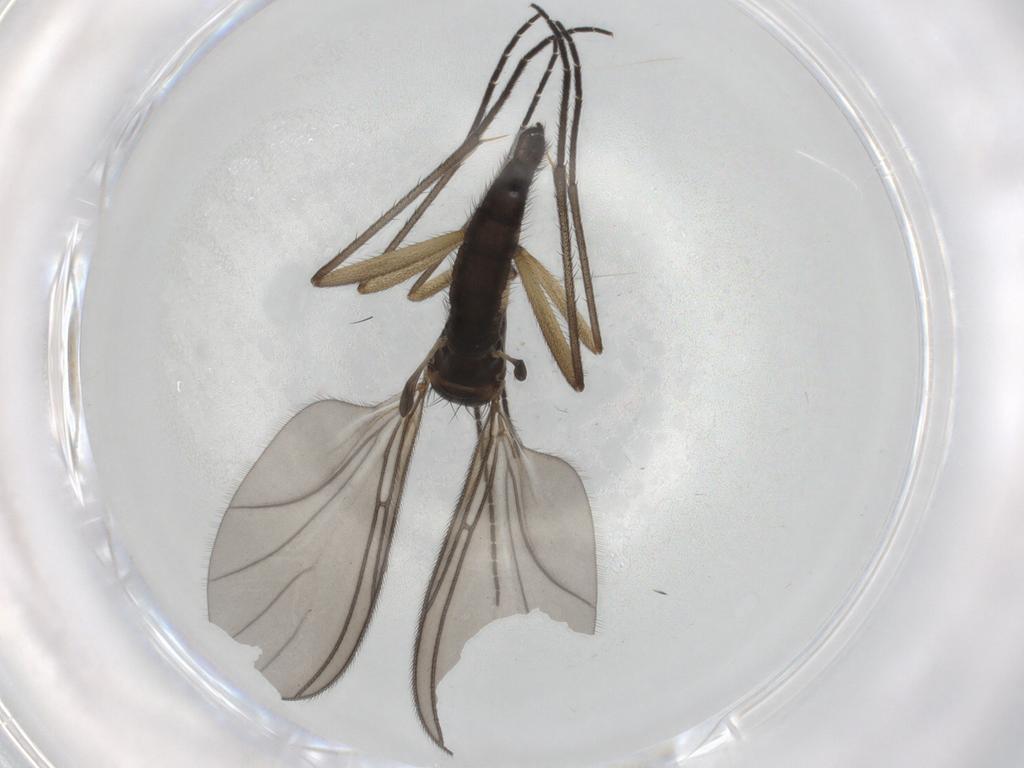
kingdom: Animalia
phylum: Arthropoda
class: Insecta
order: Diptera
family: Sciaridae
